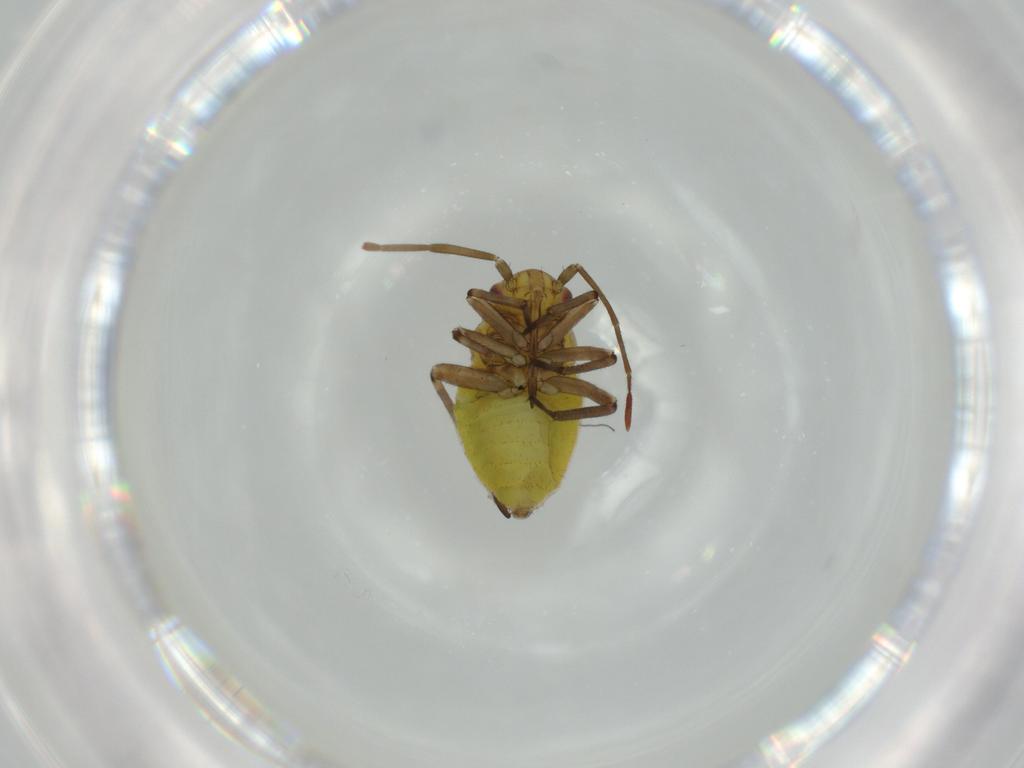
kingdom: Animalia
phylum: Arthropoda
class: Insecta
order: Hemiptera
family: Miridae
